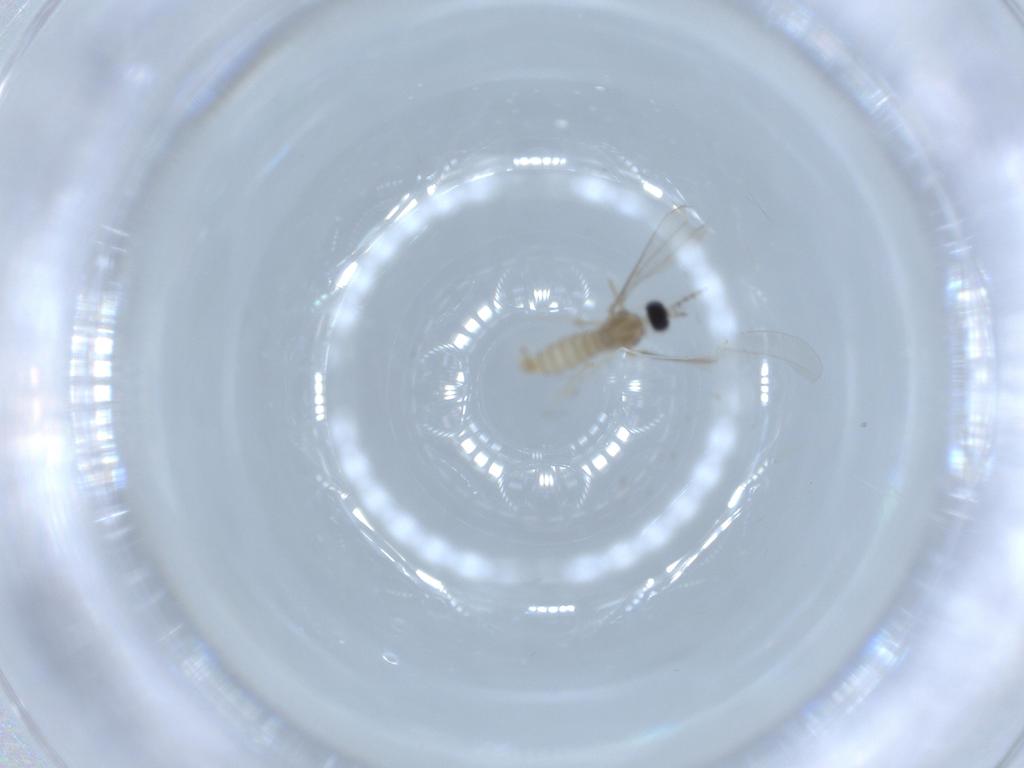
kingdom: Animalia
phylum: Arthropoda
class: Insecta
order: Diptera
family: Cecidomyiidae
